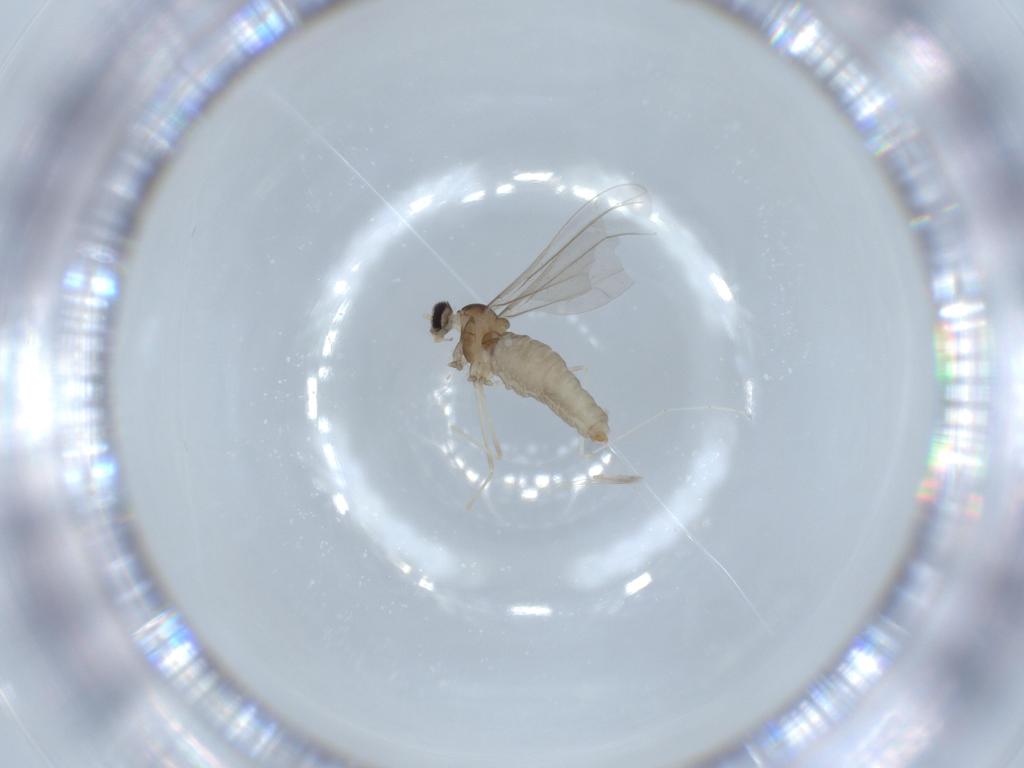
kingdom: Animalia
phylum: Arthropoda
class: Insecta
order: Diptera
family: Cecidomyiidae
